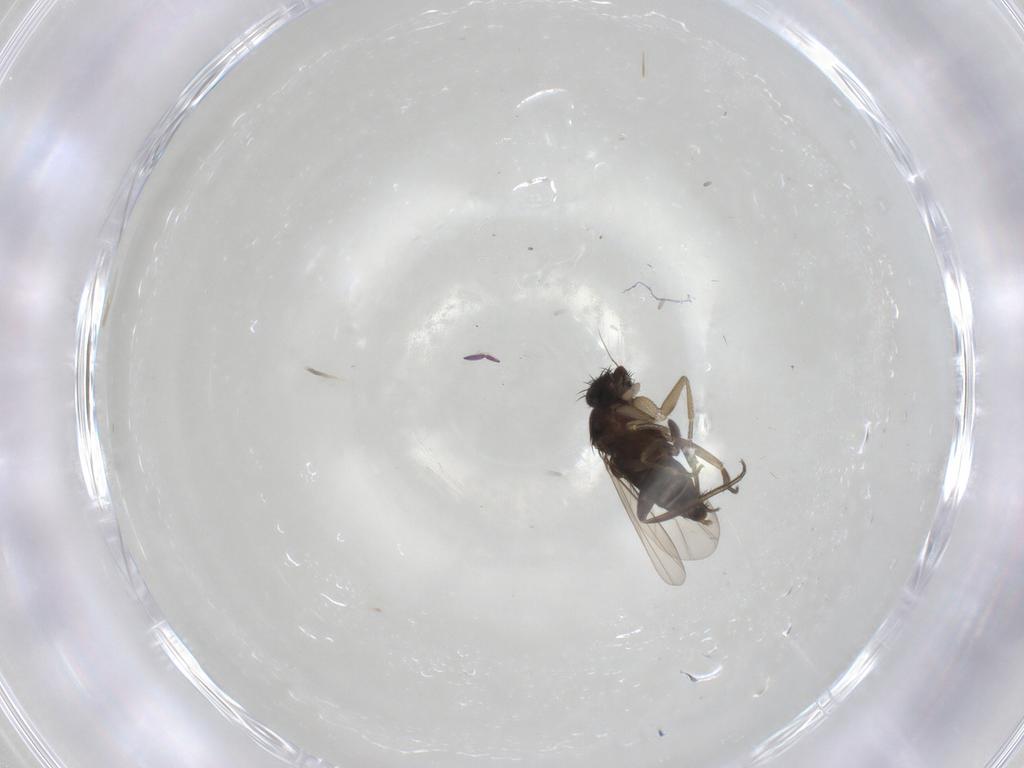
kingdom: Animalia
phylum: Arthropoda
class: Insecta
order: Diptera
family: Phoridae
